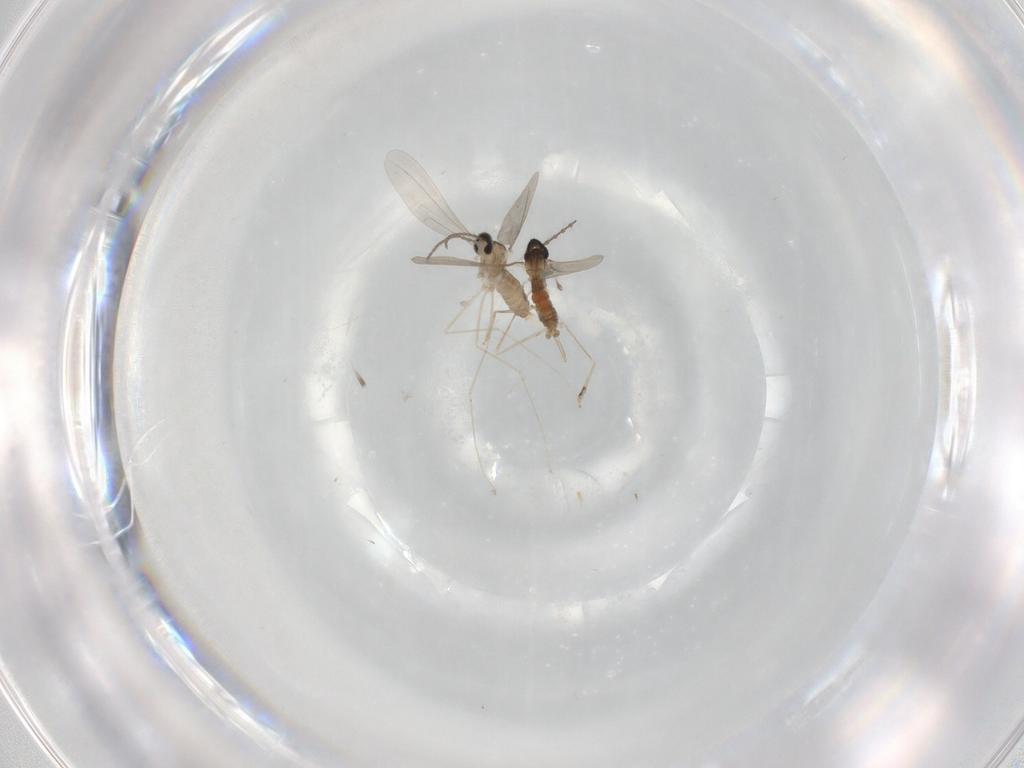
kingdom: Animalia
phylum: Arthropoda
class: Insecta
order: Diptera
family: Cecidomyiidae
